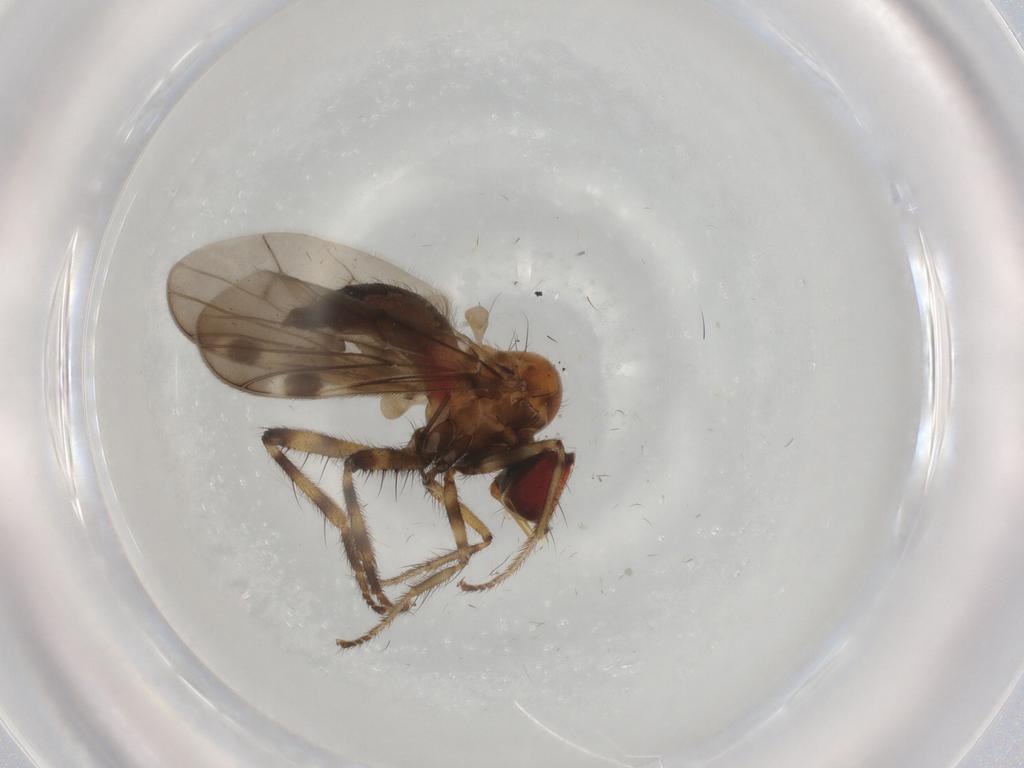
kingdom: Animalia
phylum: Arthropoda
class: Insecta
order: Diptera
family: Hybotidae
